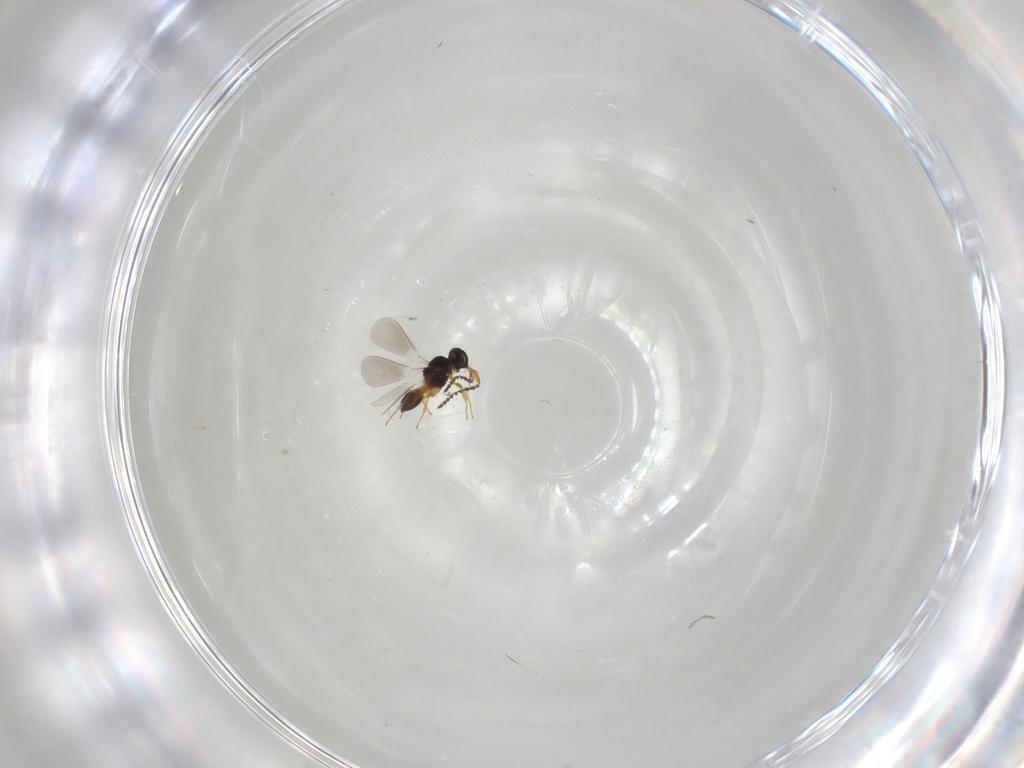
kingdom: Animalia
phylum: Arthropoda
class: Insecta
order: Hymenoptera
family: Platygastridae
